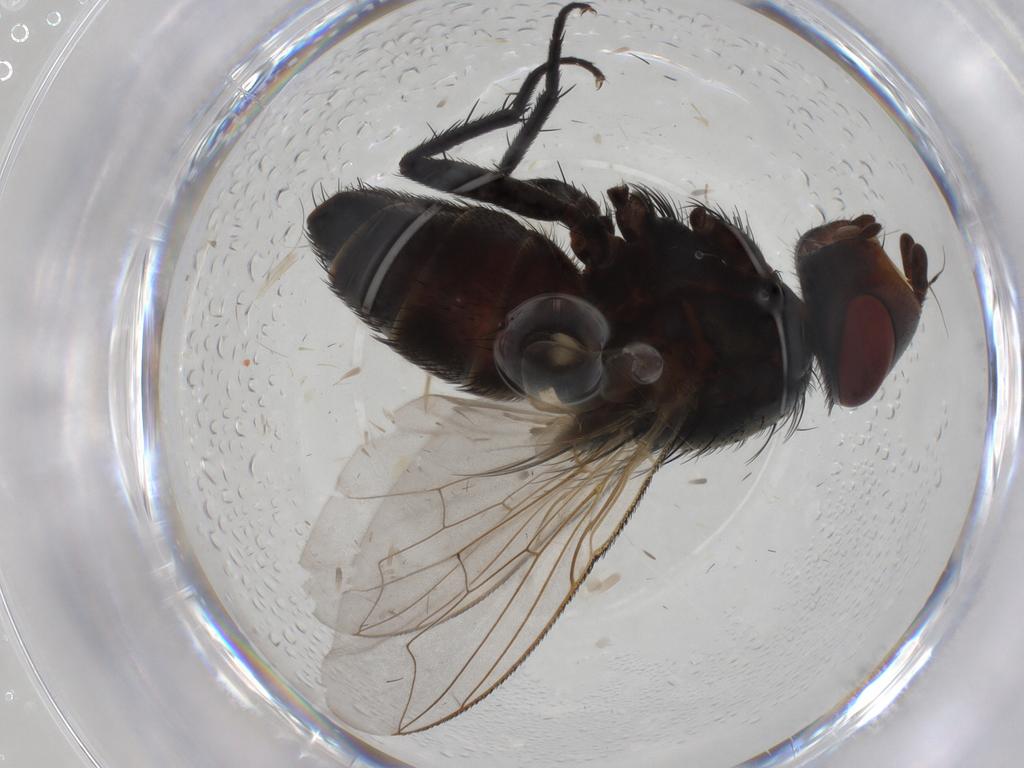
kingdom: Animalia
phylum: Arthropoda
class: Insecta
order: Diptera
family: Sarcophagidae
